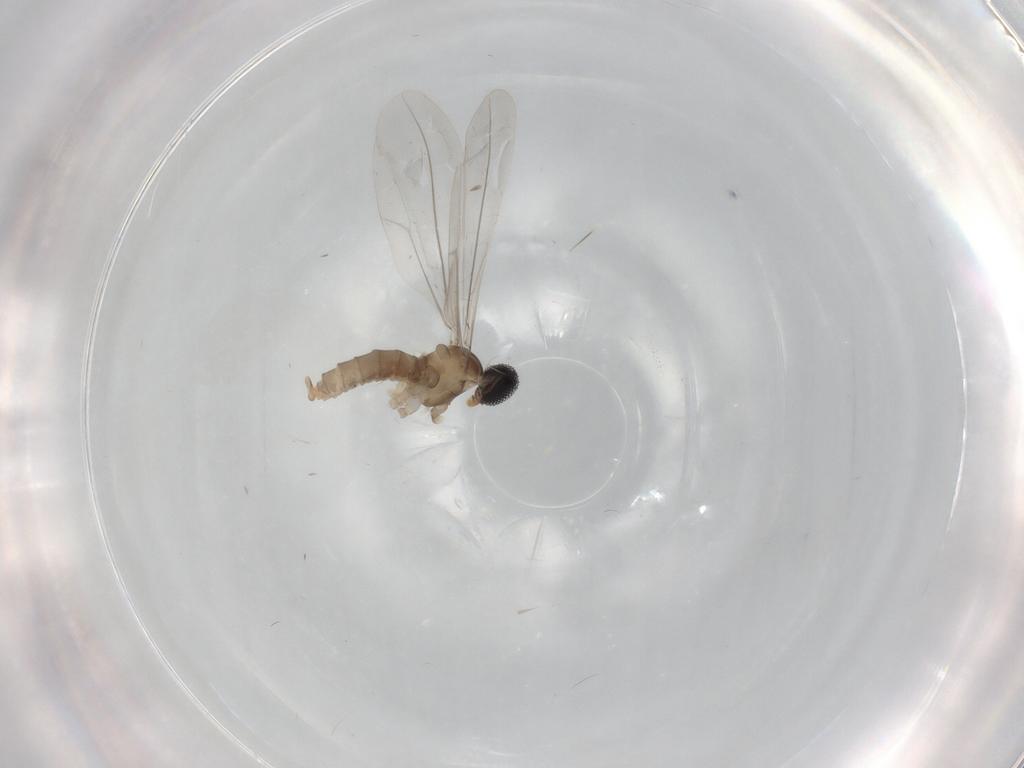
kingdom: Animalia
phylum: Arthropoda
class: Insecta
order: Diptera
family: Cecidomyiidae
